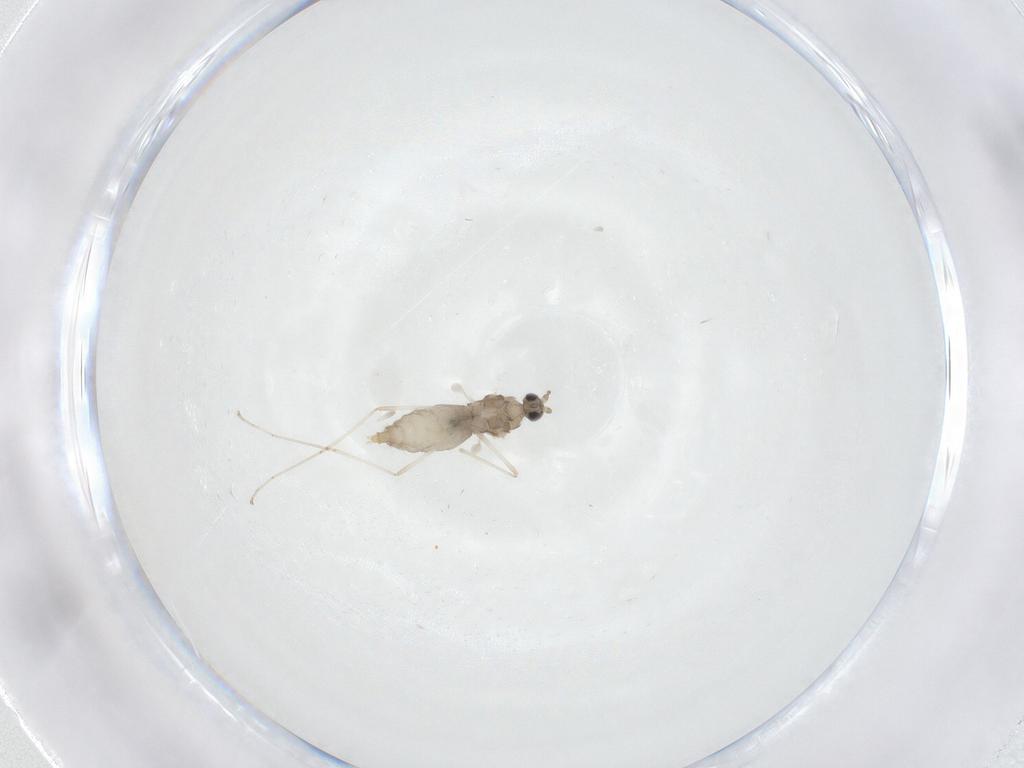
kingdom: Animalia
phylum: Arthropoda
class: Insecta
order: Diptera
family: Cecidomyiidae
